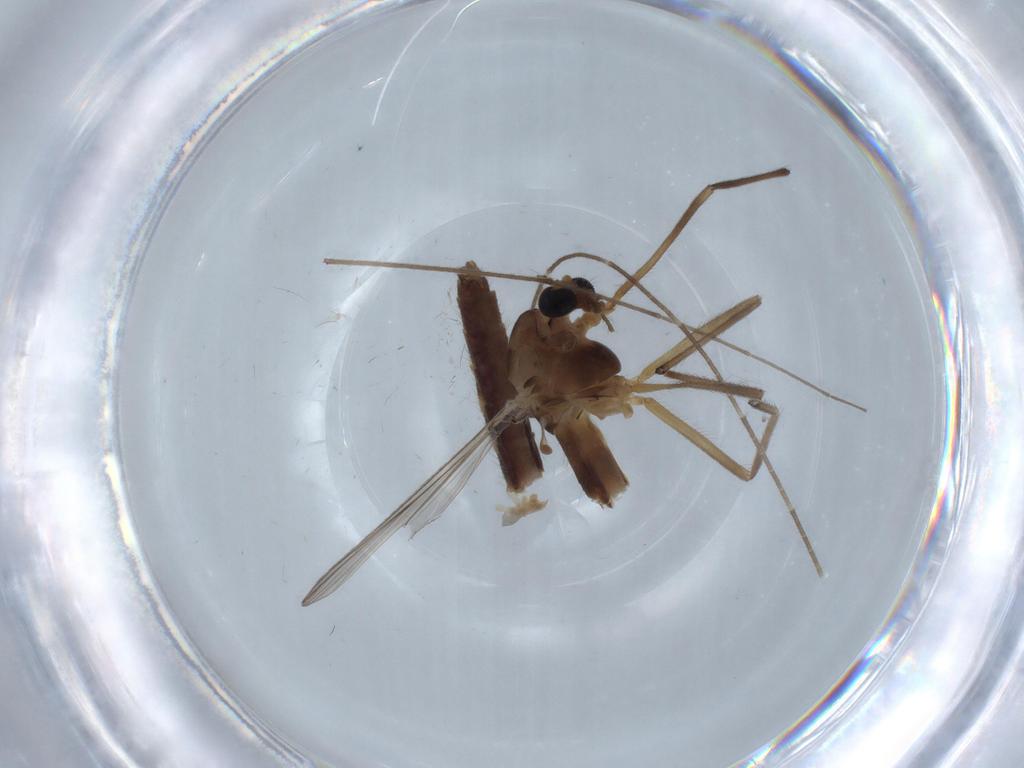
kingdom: Animalia
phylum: Arthropoda
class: Insecta
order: Diptera
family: Chironomidae
